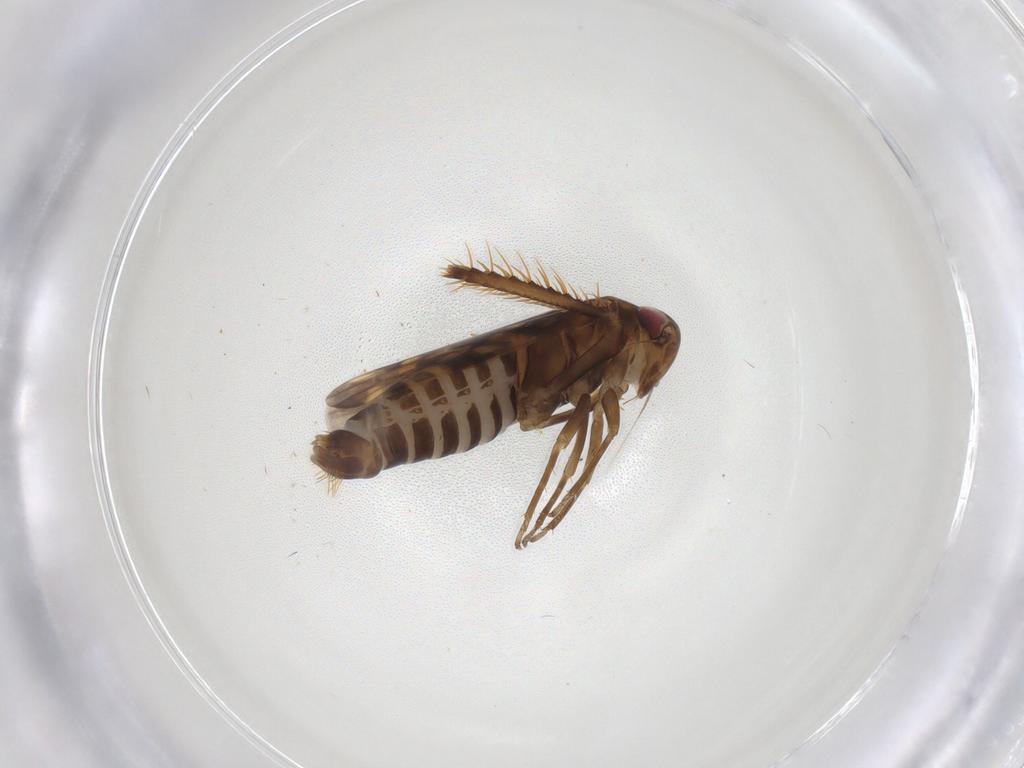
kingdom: Animalia
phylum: Arthropoda
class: Insecta
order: Hemiptera
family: Cicadellidae
